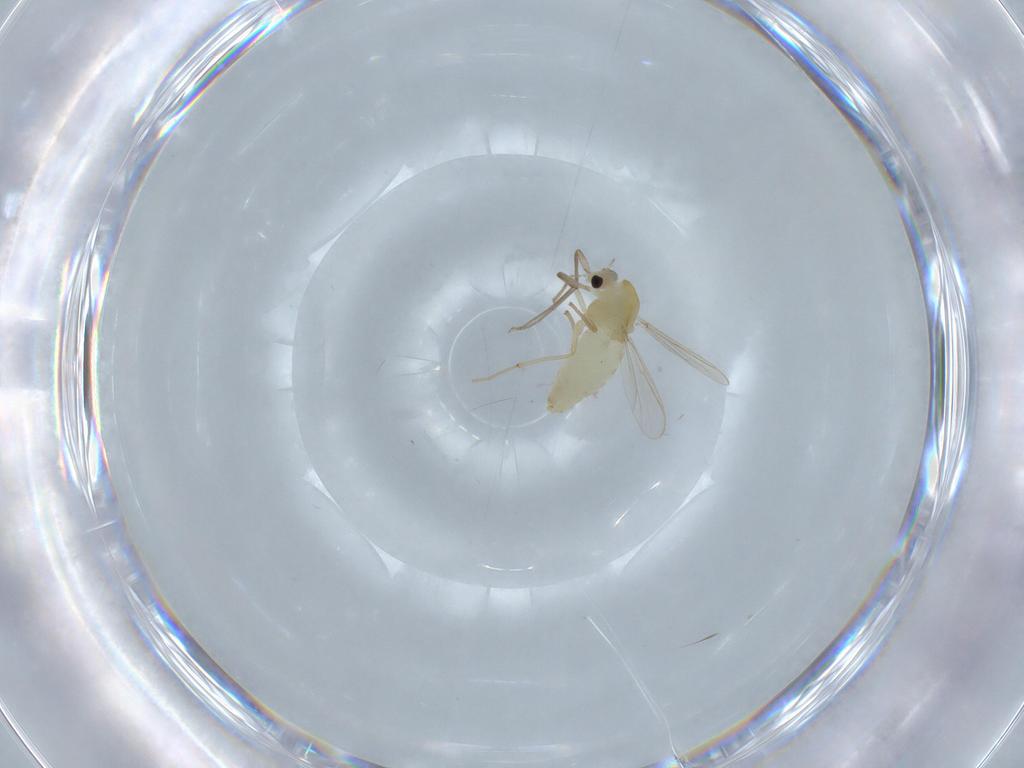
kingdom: Animalia
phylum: Arthropoda
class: Insecta
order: Diptera
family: Chironomidae
